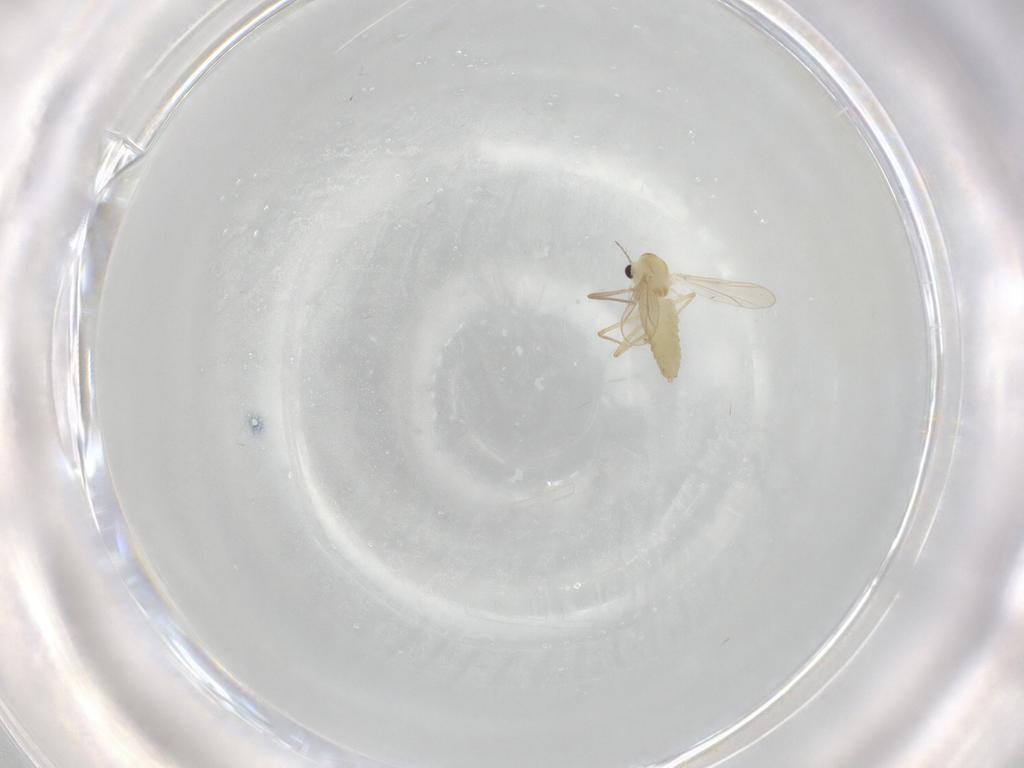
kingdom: Animalia
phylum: Arthropoda
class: Insecta
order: Diptera
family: Chironomidae
